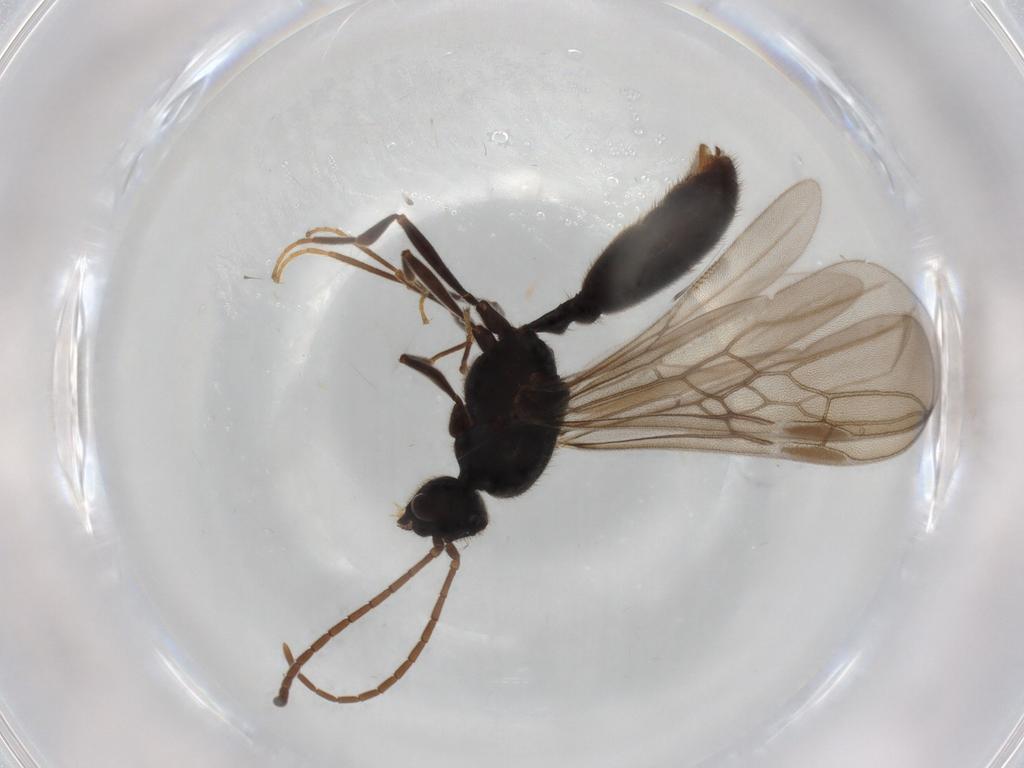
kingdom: Animalia
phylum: Arthropoda
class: Insecta
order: Hymenoptera
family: Formicidae
